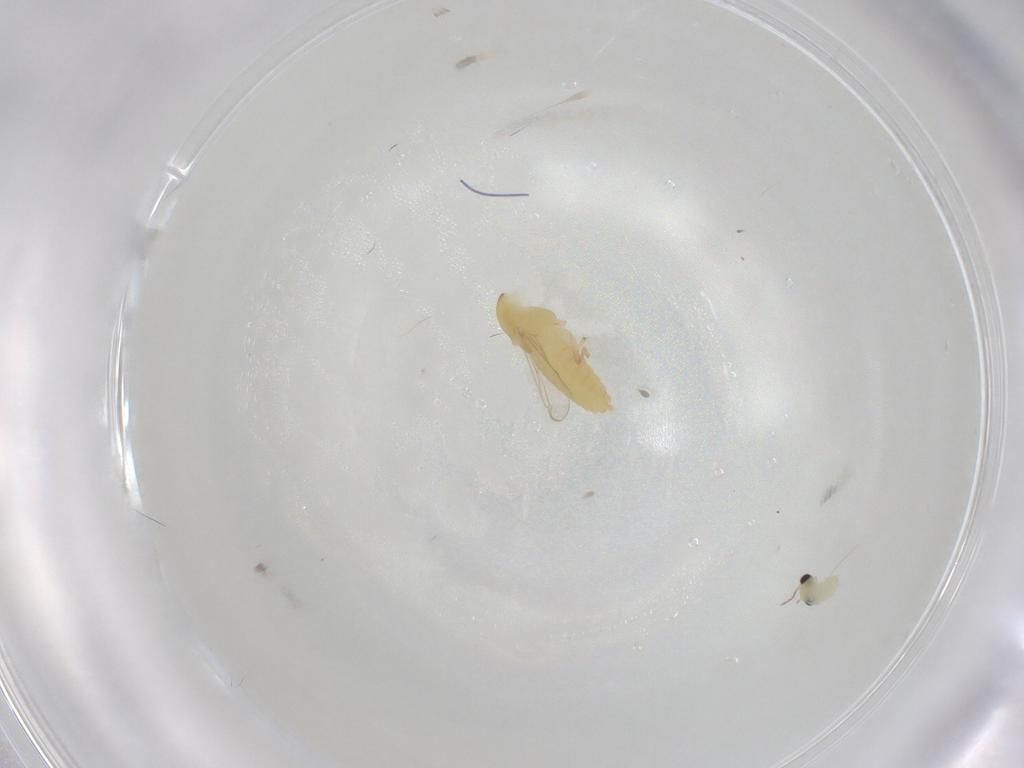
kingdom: Animalia
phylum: Arthropoda
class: Insecta
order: Diptera
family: Chironomidae
